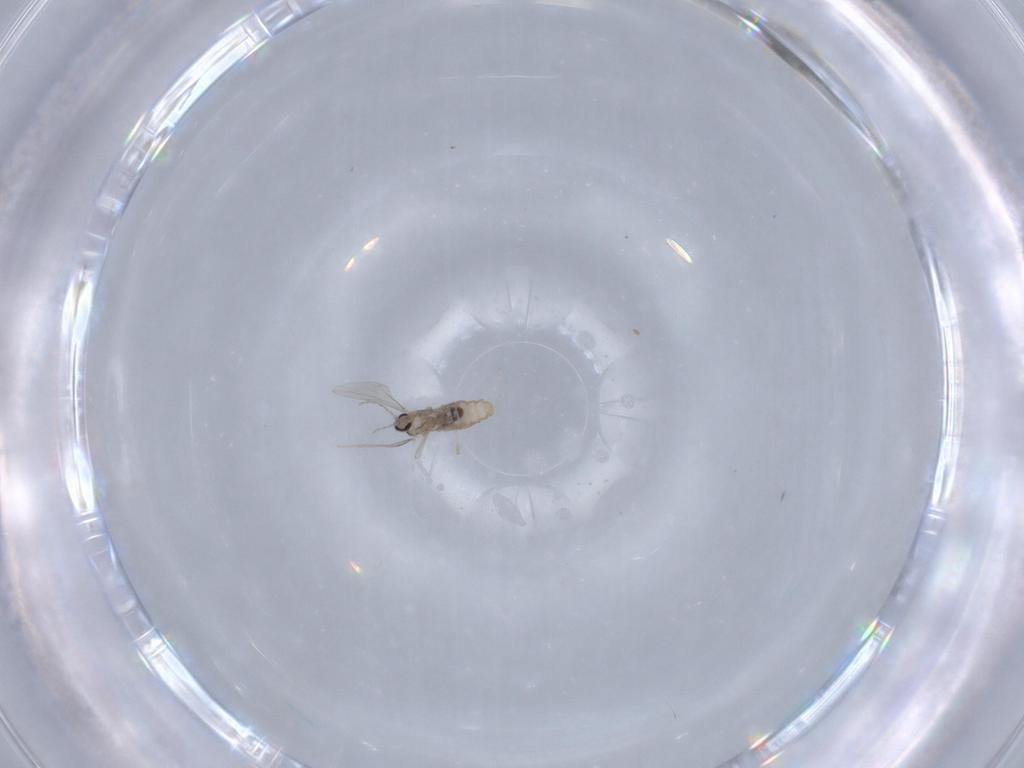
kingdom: Animalia
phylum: Arthropoda
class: Insecta
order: Diptera
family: Cecidomyiidae
